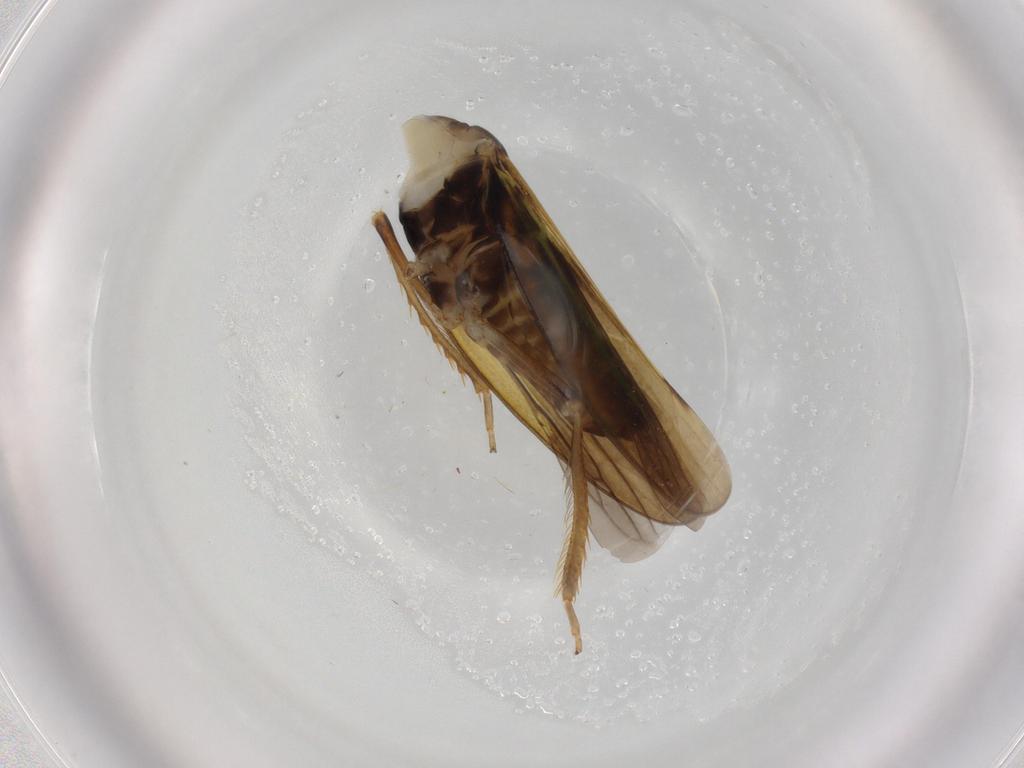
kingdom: Animalia
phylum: Arthropoda
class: Insecta
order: Hemiptera
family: Cicadellidae
